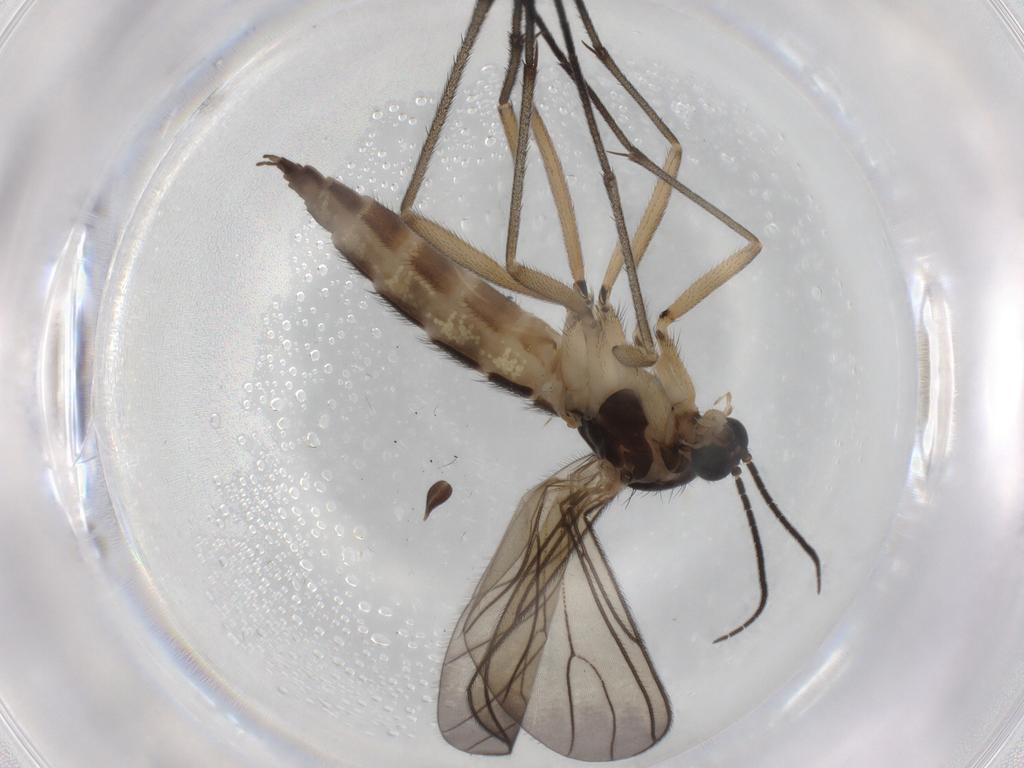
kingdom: Animalia
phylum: Arthropoda
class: Insecta
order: Diptera
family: Sciaridae
